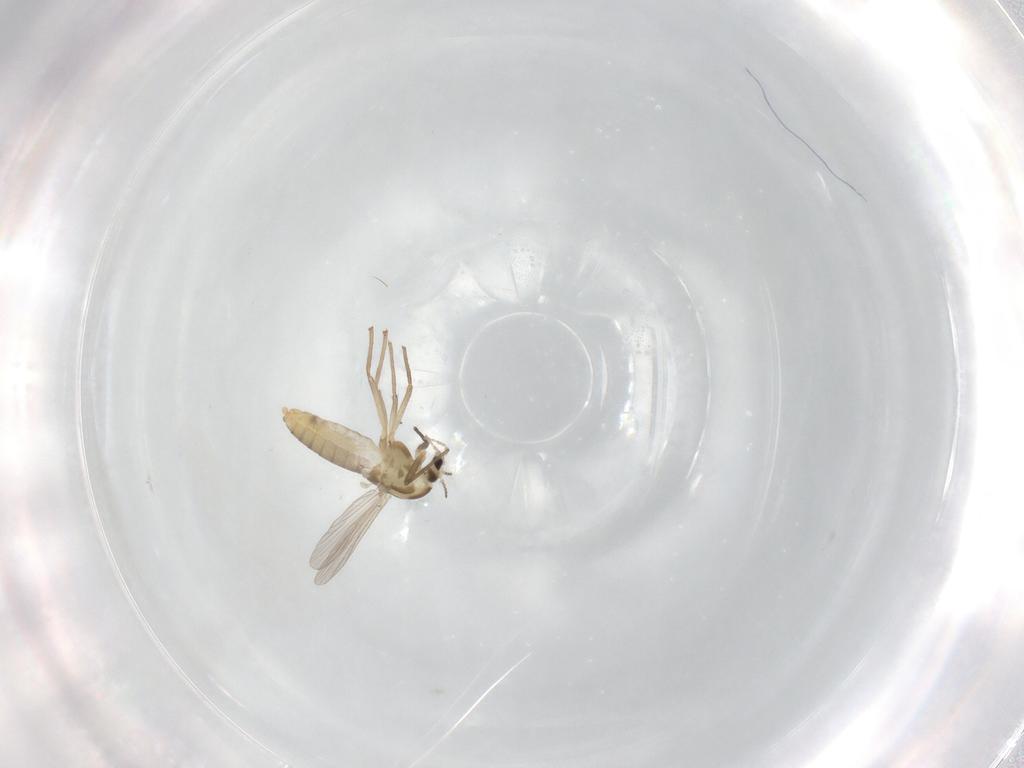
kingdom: Animalia
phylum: Arthropoda
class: Insecta
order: Diptera
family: Chironomidae
